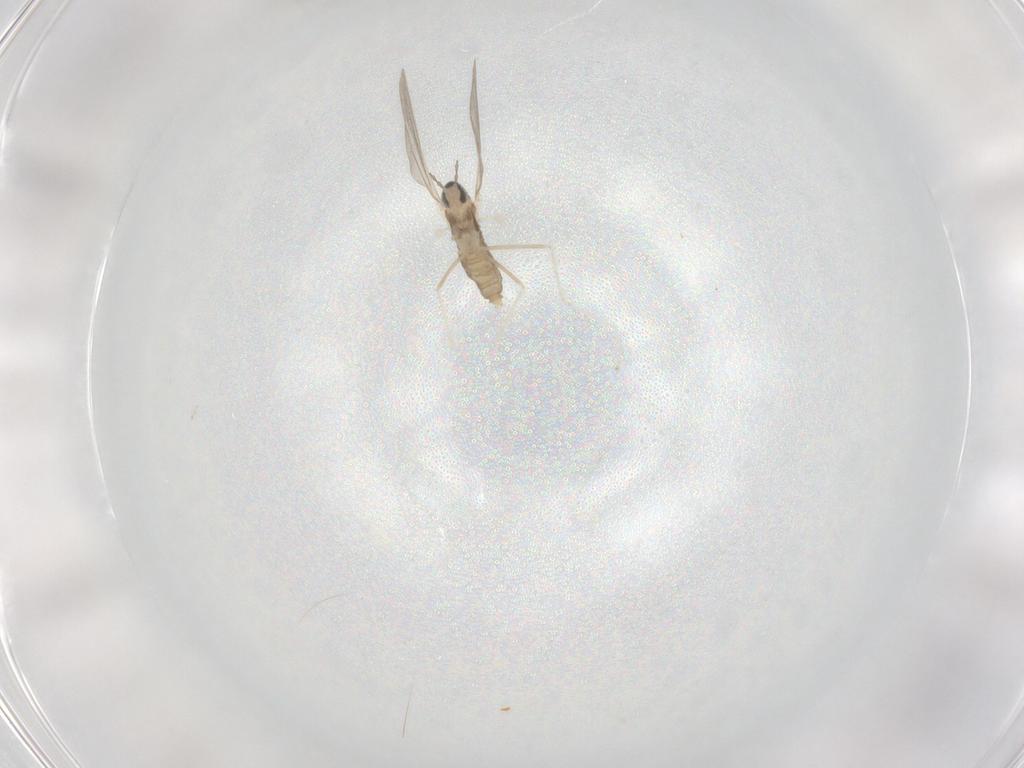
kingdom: Animalia
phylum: Arthropoda
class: Insecta
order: Diptera
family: Cecidomyiidae
